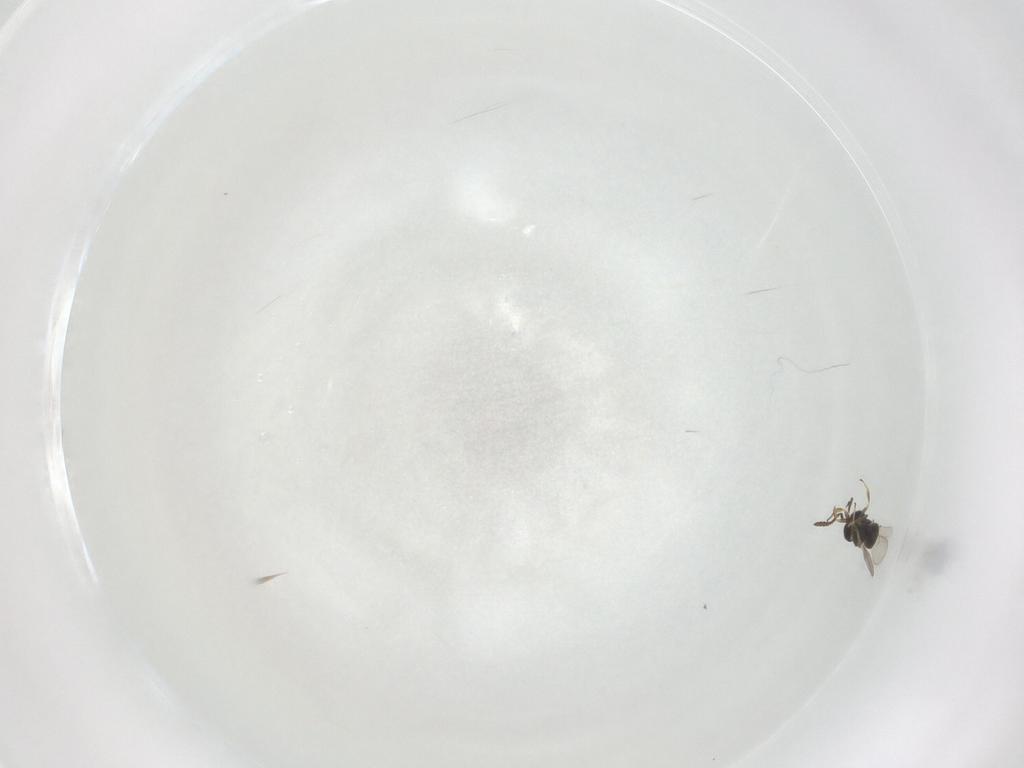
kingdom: Animalia
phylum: Arthropoda
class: Insecta
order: Hymenoptera
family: Scelionidae
